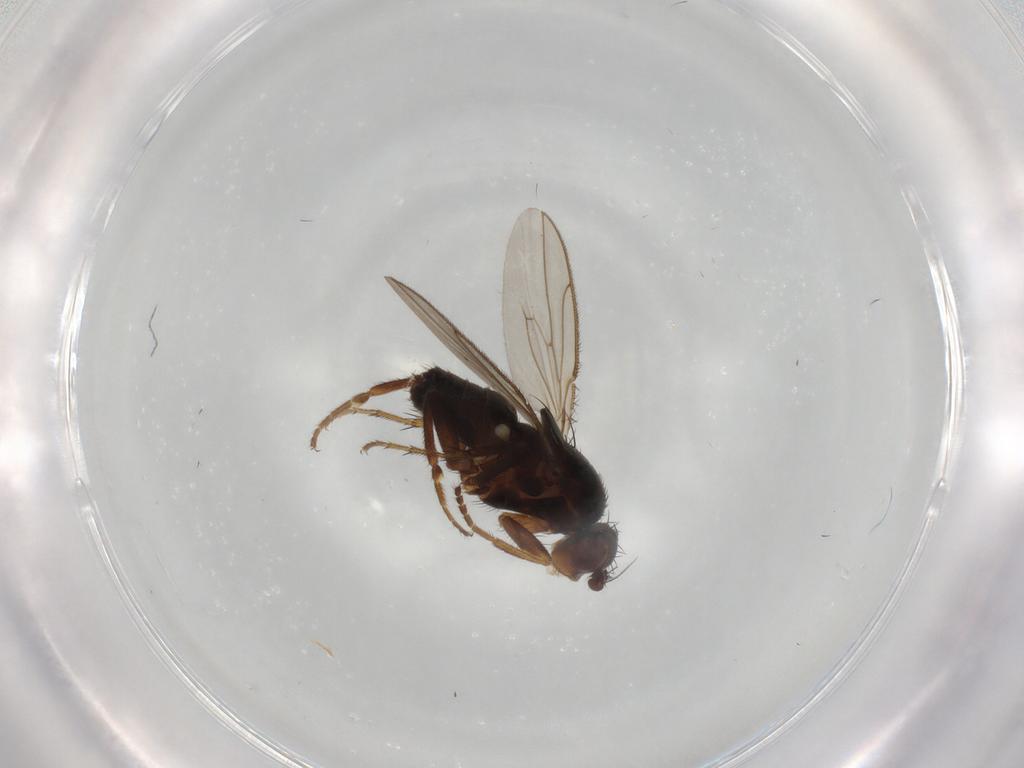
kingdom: Animalia
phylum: Arthropoda
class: Insecta
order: Diptera
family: Sphaeroceridae
